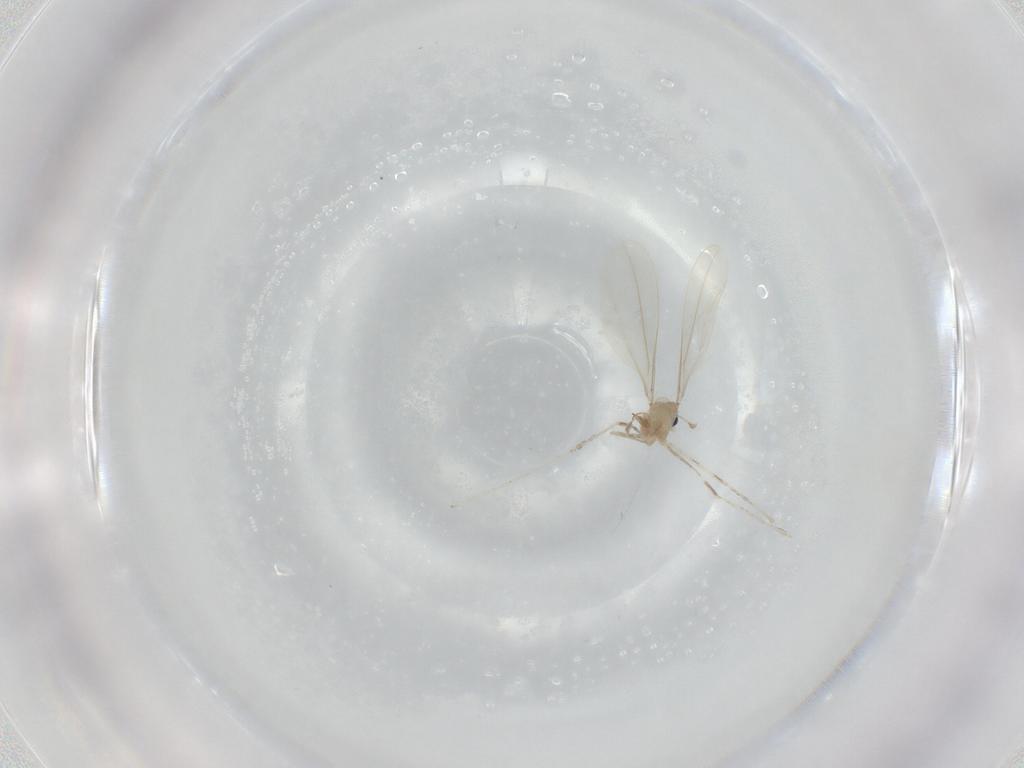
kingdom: Animalia
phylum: Arthropoda
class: Insecta
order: Diptera
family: Cecidomyiidae
